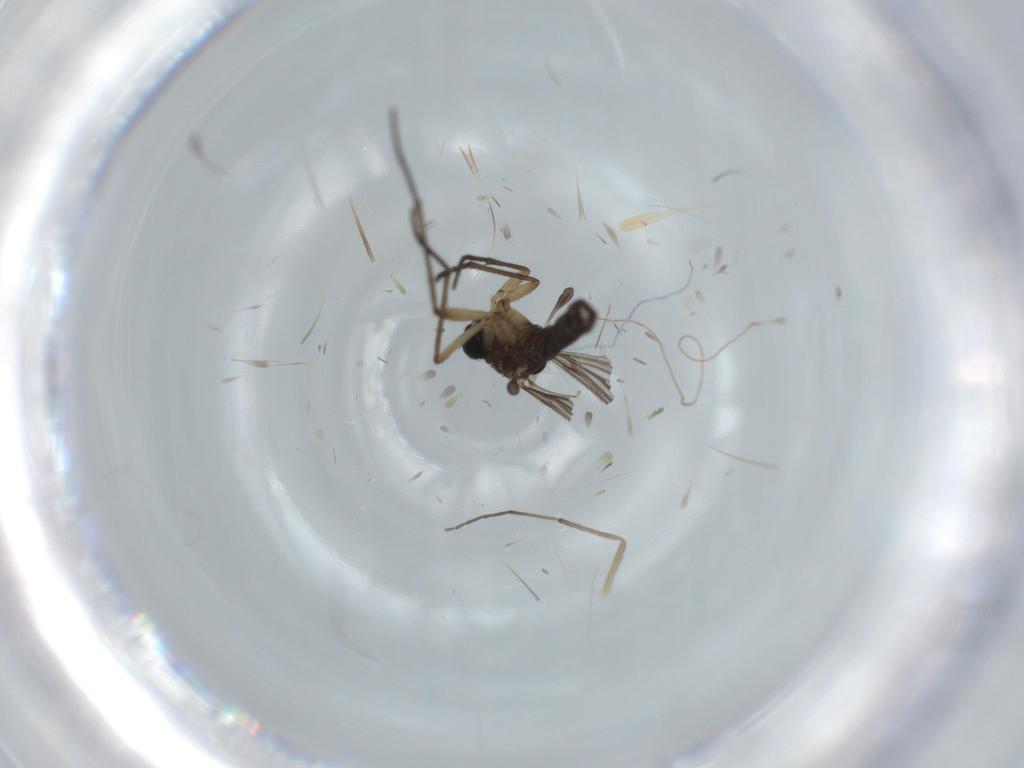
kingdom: Animalia
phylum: Arthropoda
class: Insecta
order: Diptera
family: Chironomidae
